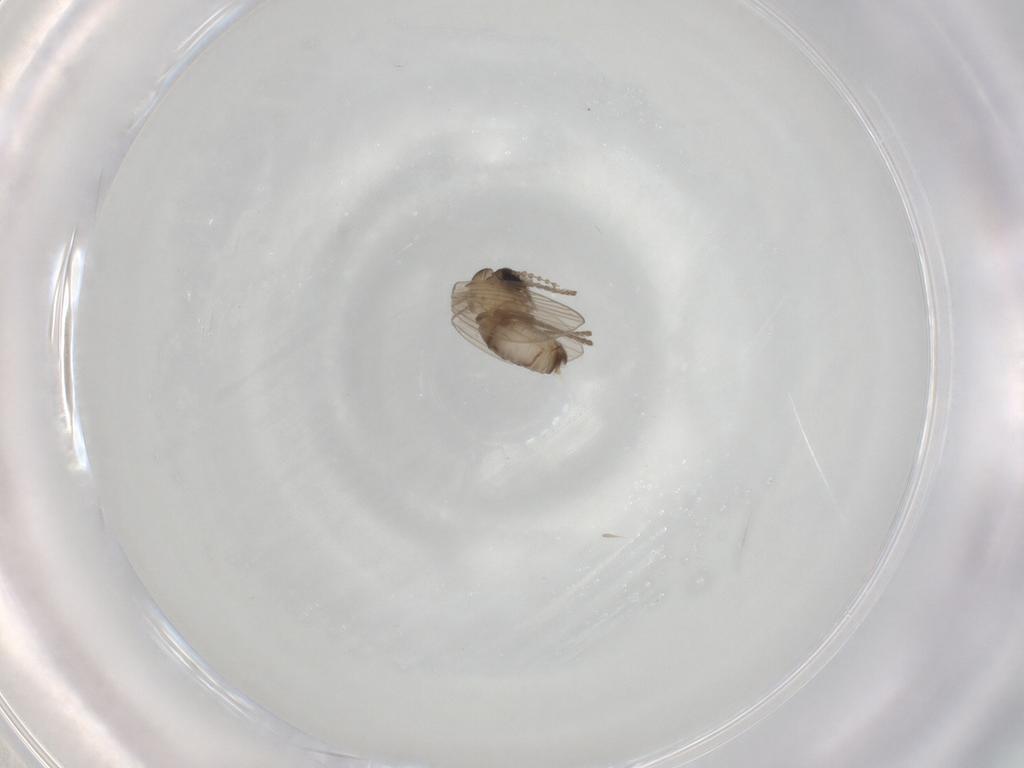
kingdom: Animalia
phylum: Arthropoda
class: Insecta
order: Diptera
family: Psychodidae
